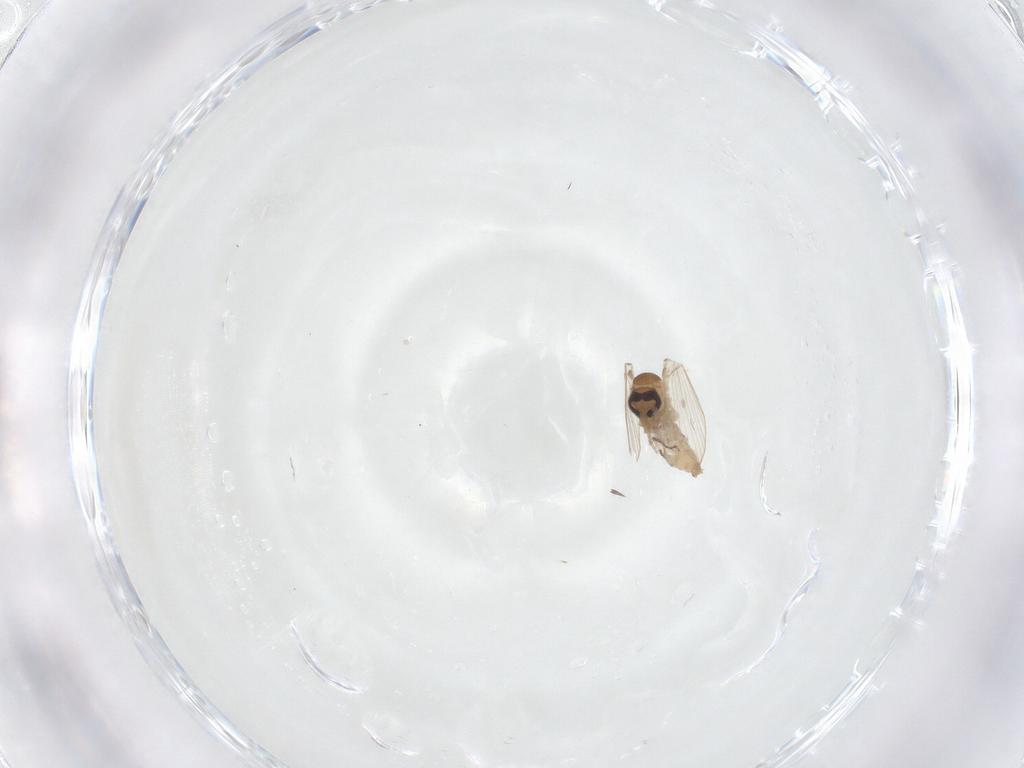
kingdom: Animalia
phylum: Arthropoda
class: Insecta
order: Diptera
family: Psychodidae
